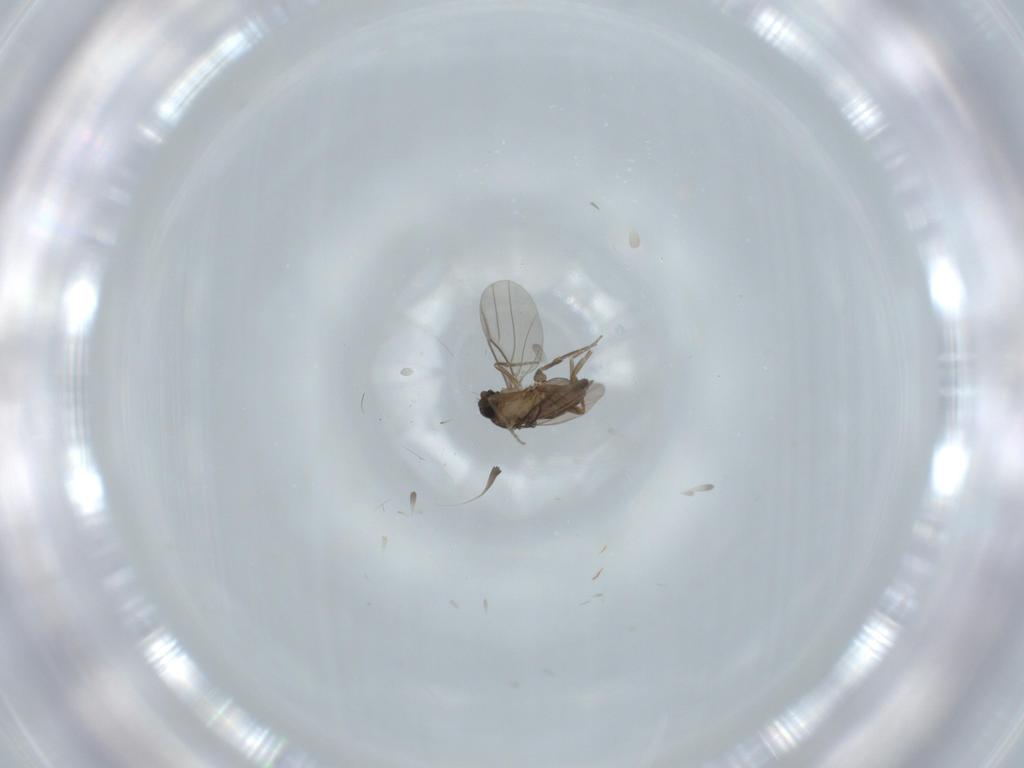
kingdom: Animalia
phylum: Arthropoda
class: Insecta
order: Diptera
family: Phoridae
